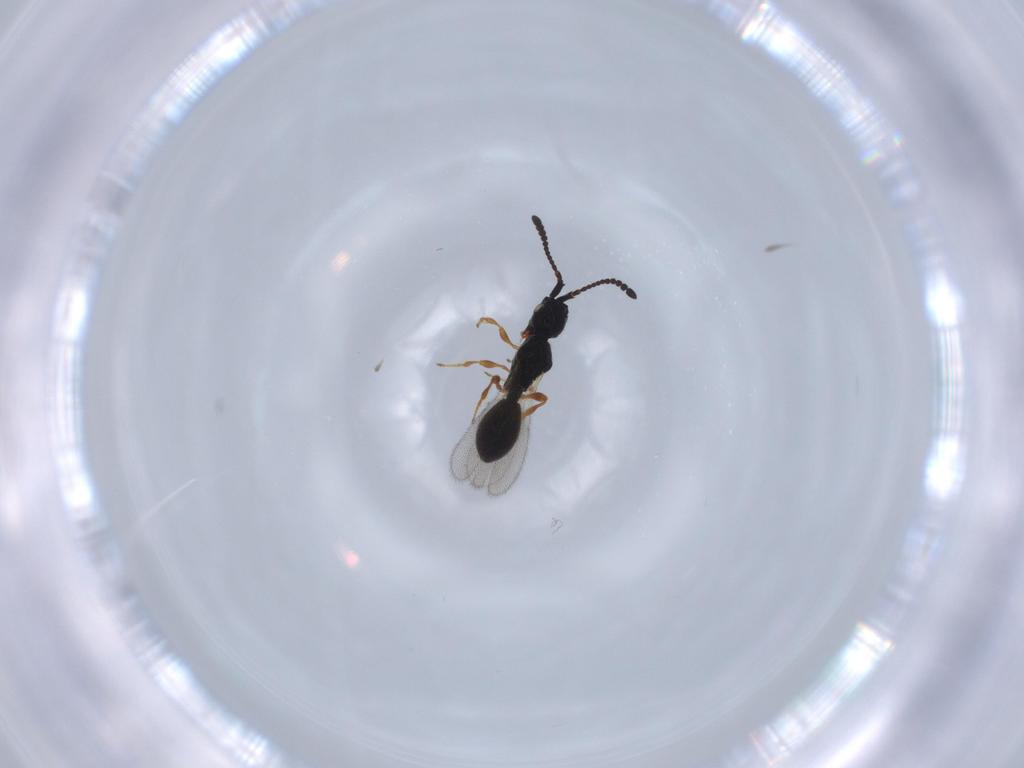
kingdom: Animalia
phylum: Arthropoda
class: Insecta
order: Hymenoptera
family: Diapriidae
